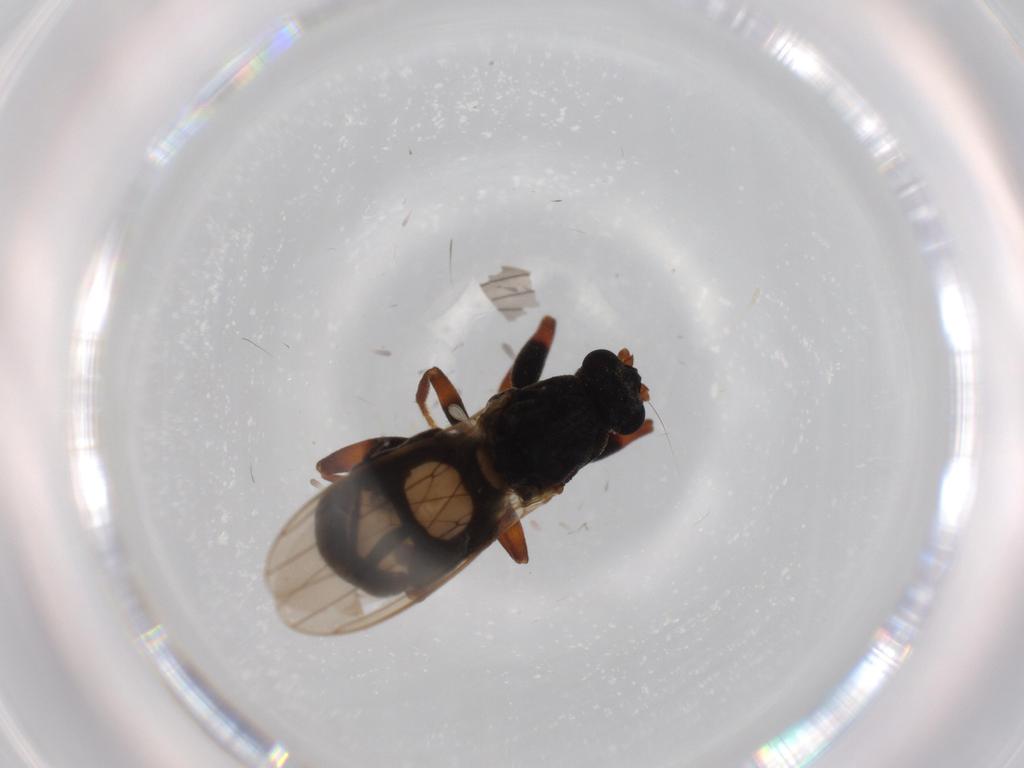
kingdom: Animalia
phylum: Arthropoda
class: Insecta
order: Diptera
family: Sphaeroceridae
